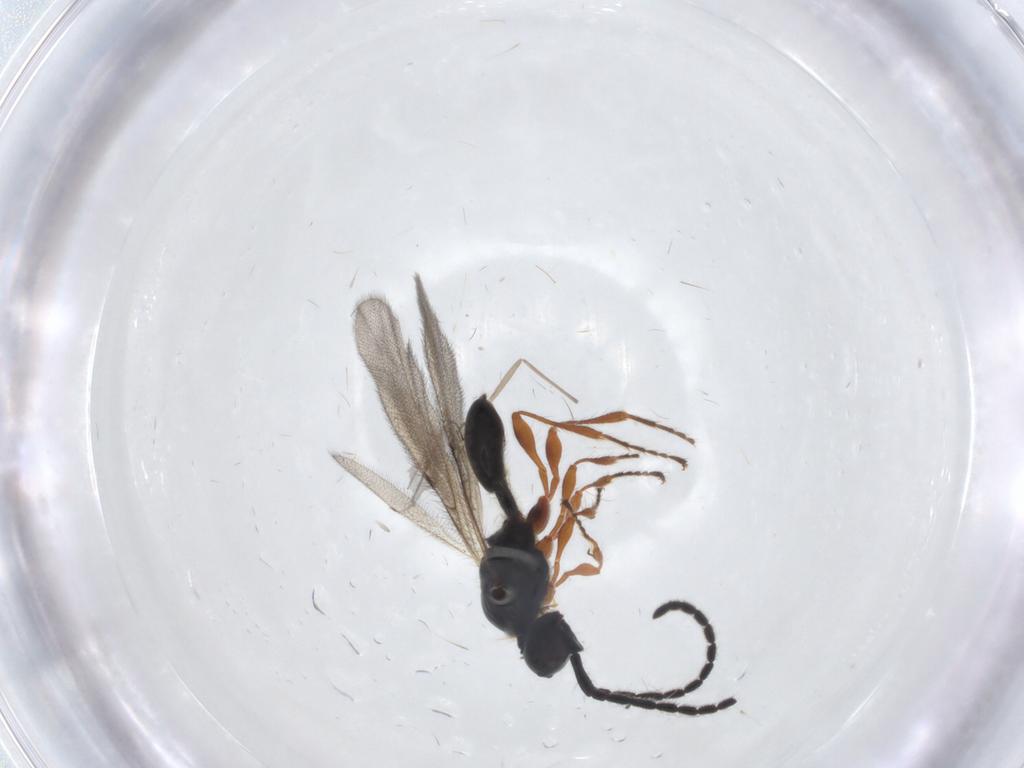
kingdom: Animalia
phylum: Arthropoda
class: Insecta
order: Hymenoptera
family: Diapriidae
